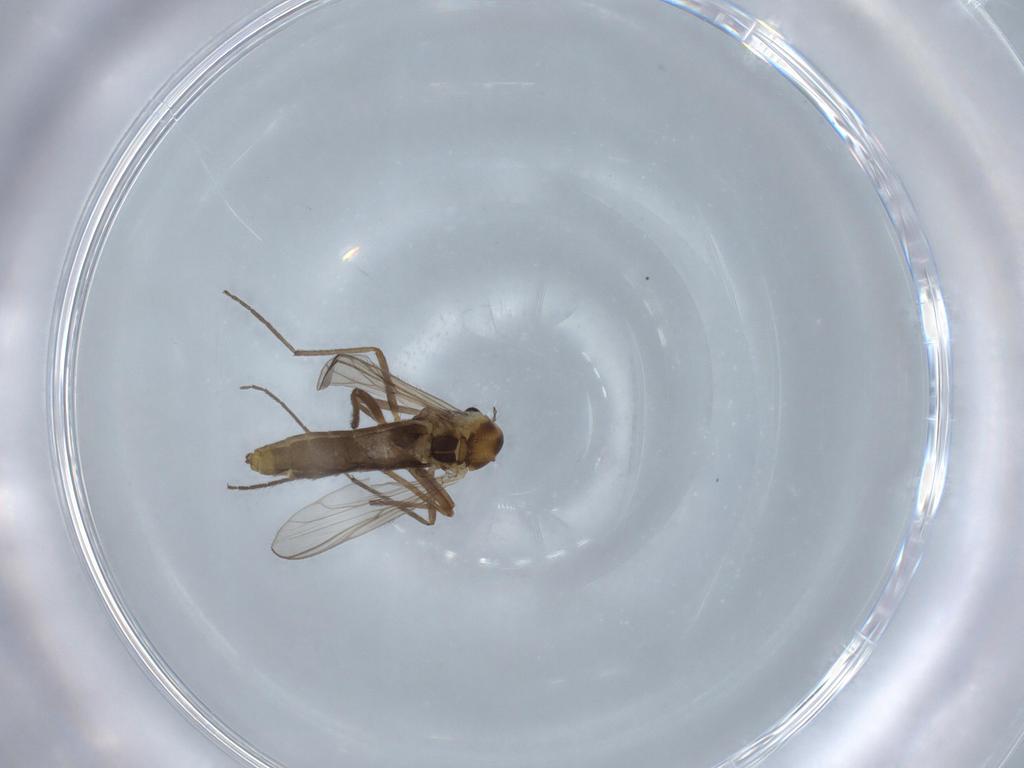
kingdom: Animalia
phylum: Arthropoda
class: Insecta
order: Diptera
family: Chironomidae
